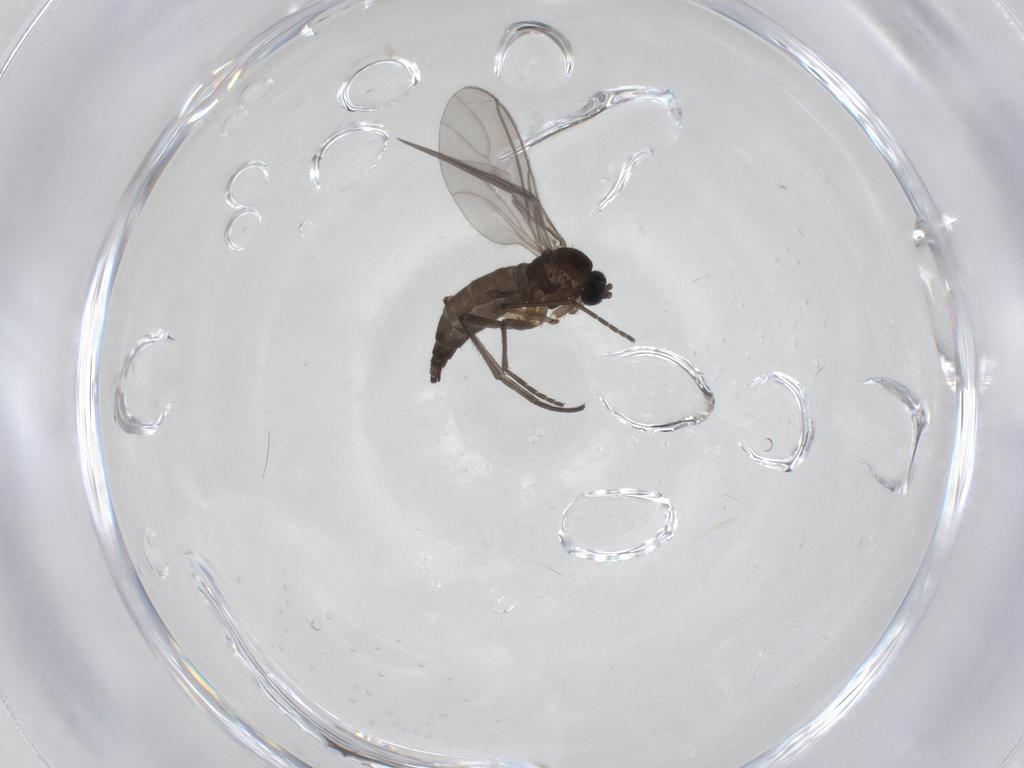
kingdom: Animalia
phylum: Arthropoda
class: Insecta
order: Diptera
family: Sciaridae
